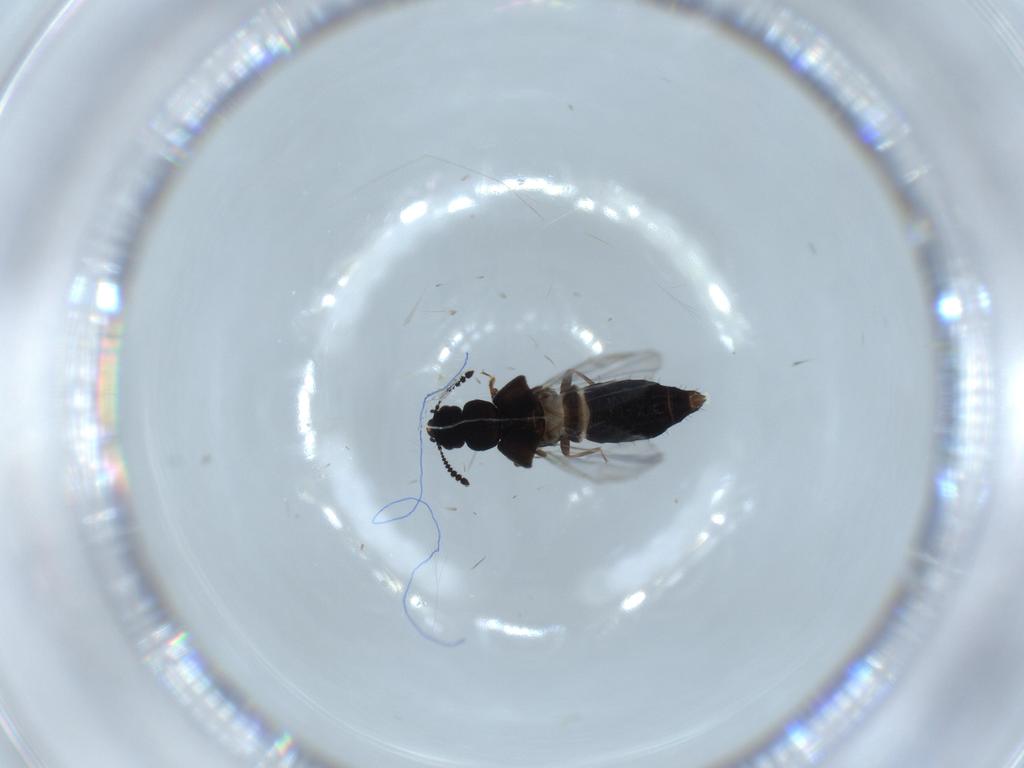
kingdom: Animalia
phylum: Arthropoda
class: Insecta
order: Coleoptera
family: Staphylinidae
